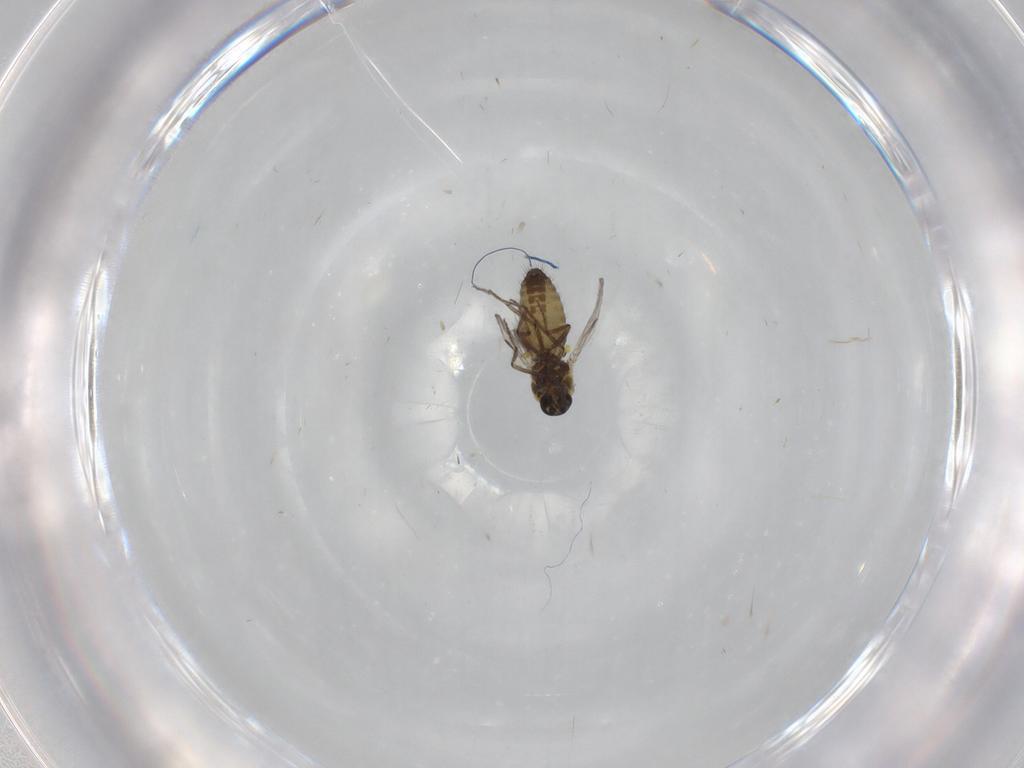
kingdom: Animalia
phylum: Arthropoda
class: Insecta
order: Diptera
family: Ceratopogonidae
